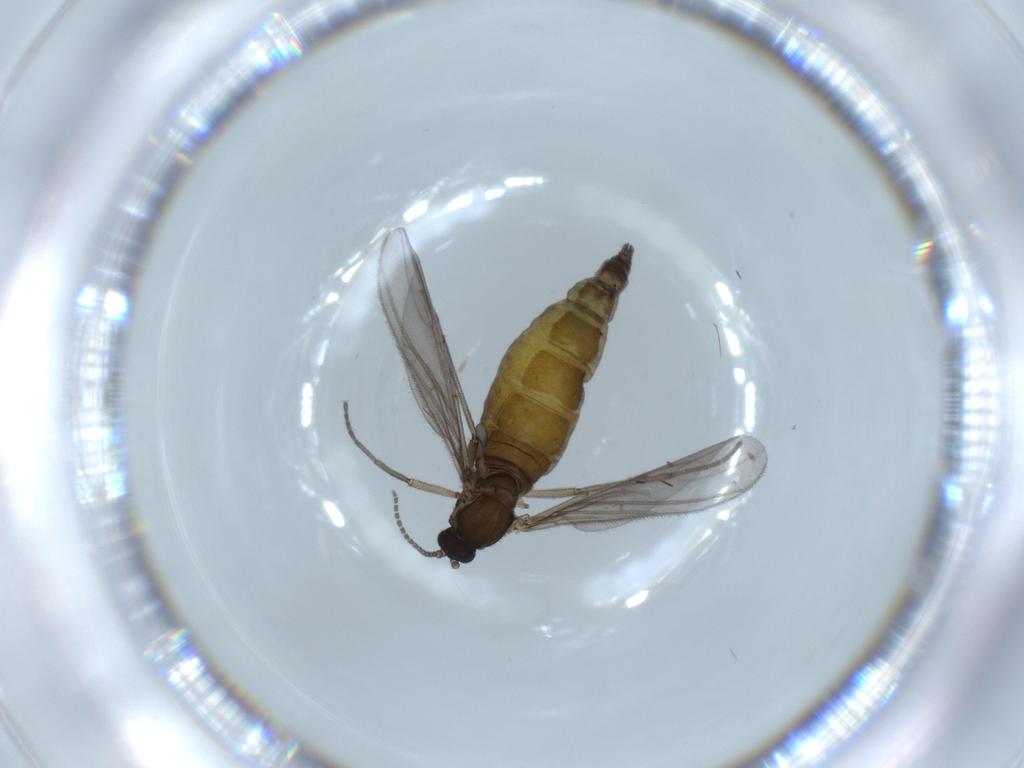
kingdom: Animalia
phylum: Arthropoda
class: Insecta
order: Diptera
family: Sciaridae
